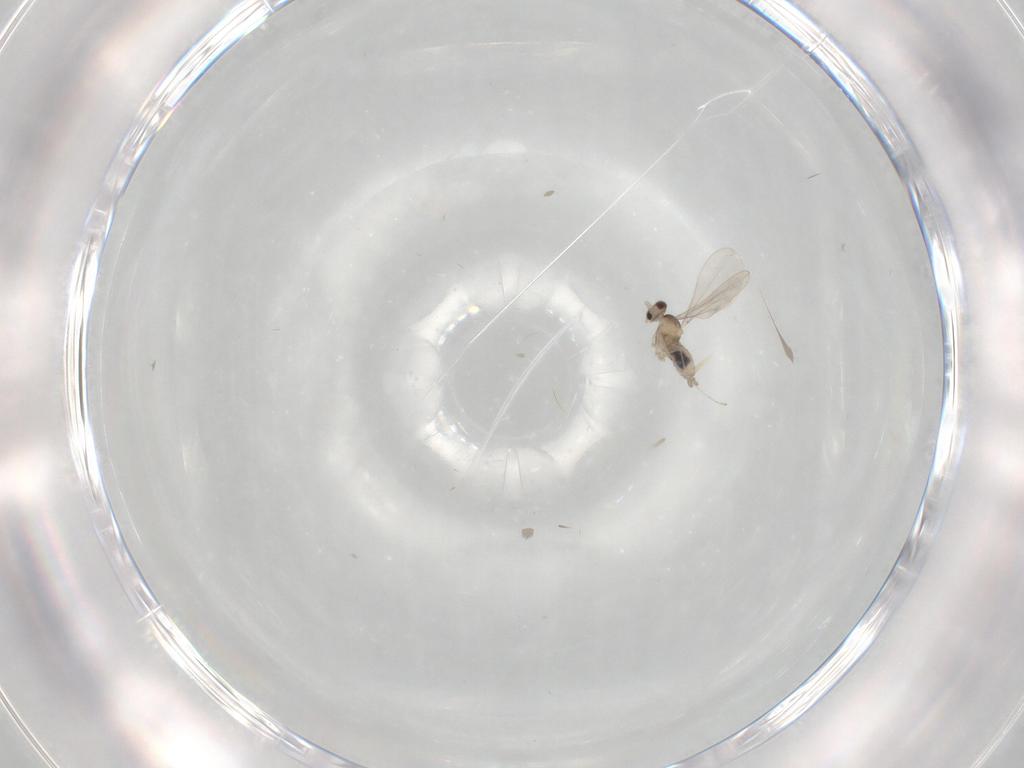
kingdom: Animalia
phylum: Arthropoda
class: Insecta
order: Diptera
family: Cecidomyiidae
